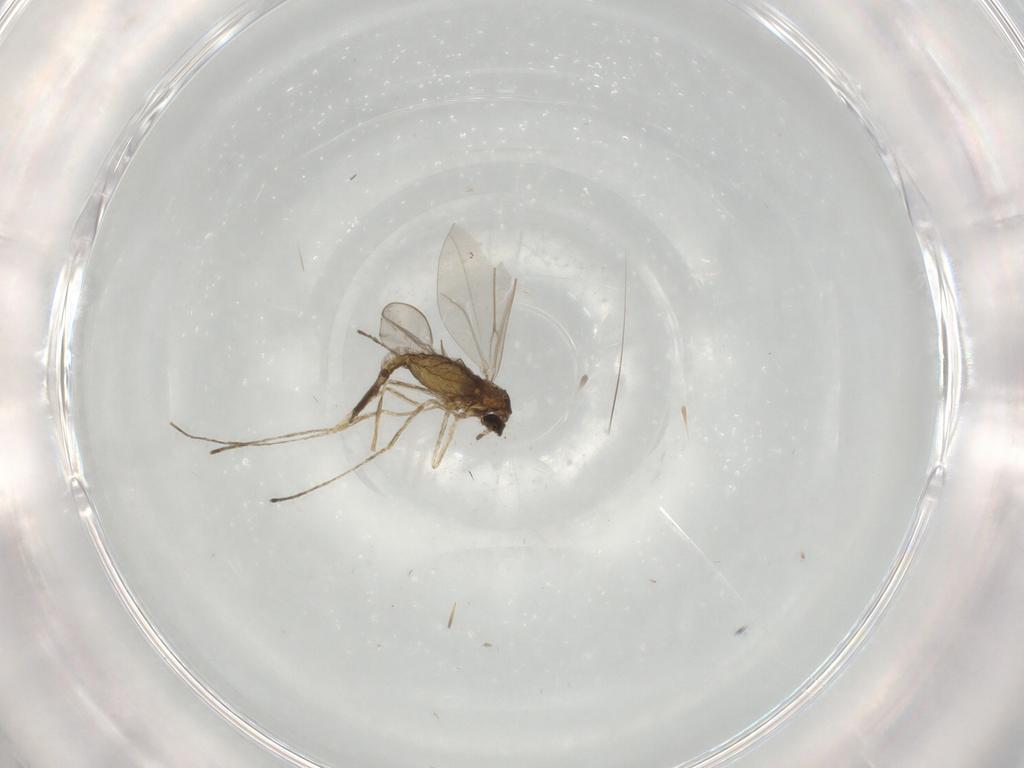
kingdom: Animalia
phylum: Arthropoda
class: Insecta
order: Diptera
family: Cecidomyiidae
